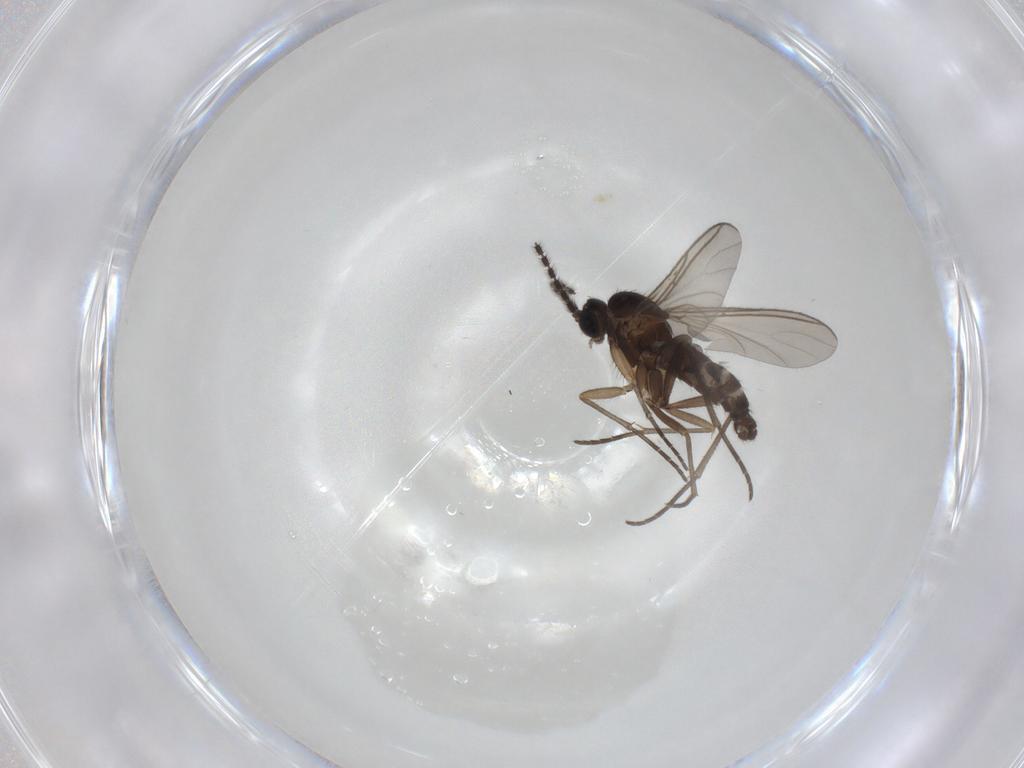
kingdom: Animalia
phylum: Arthropoda
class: Insecta
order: Diptera
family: Sciaridae
